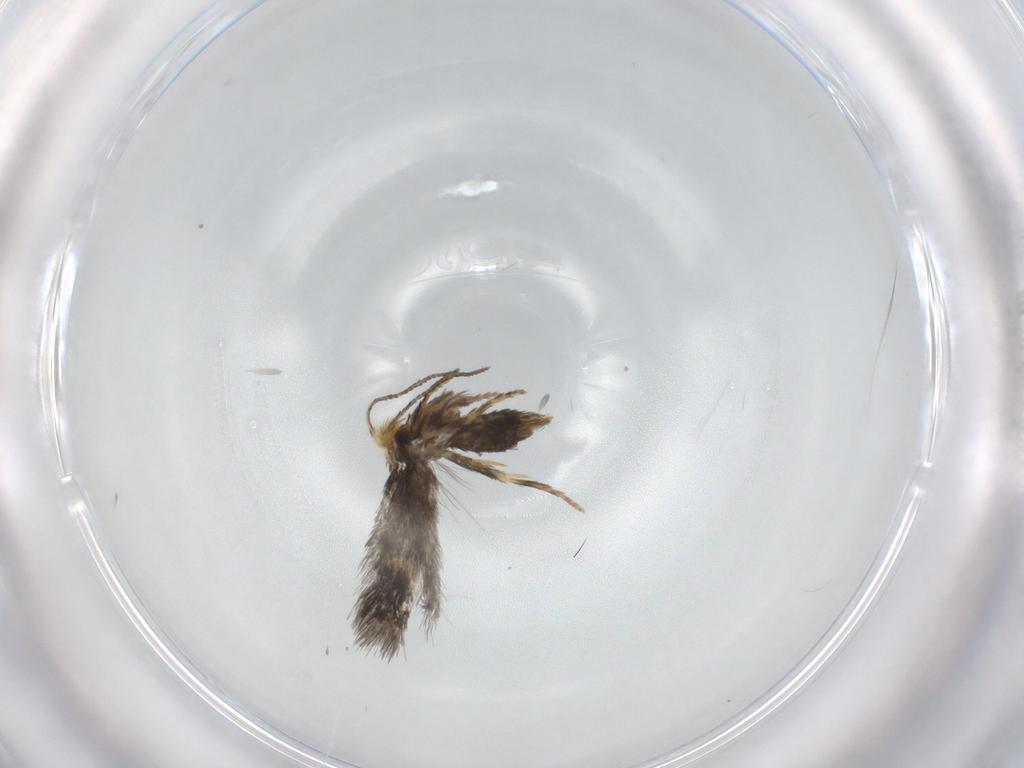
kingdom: Animalia
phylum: Arthropoda
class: Insecta
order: Lepidoptera
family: Nepticulidae
